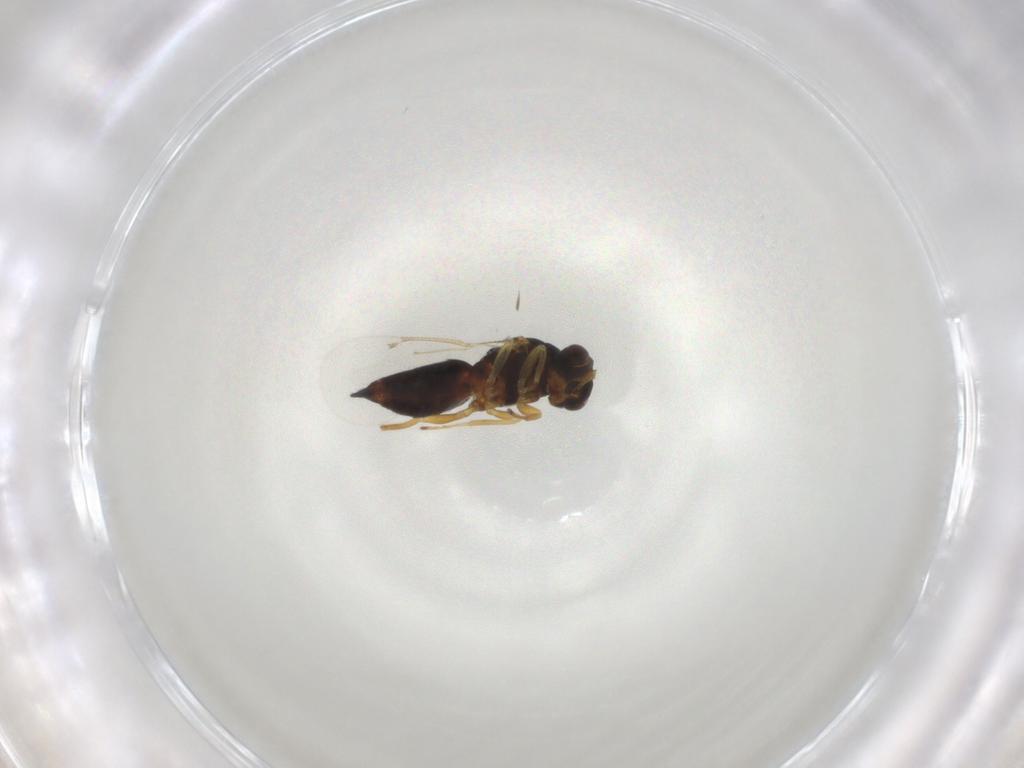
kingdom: Animalia
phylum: Arthropoda
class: Insecta
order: Hymenoptera
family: Eulophidae
